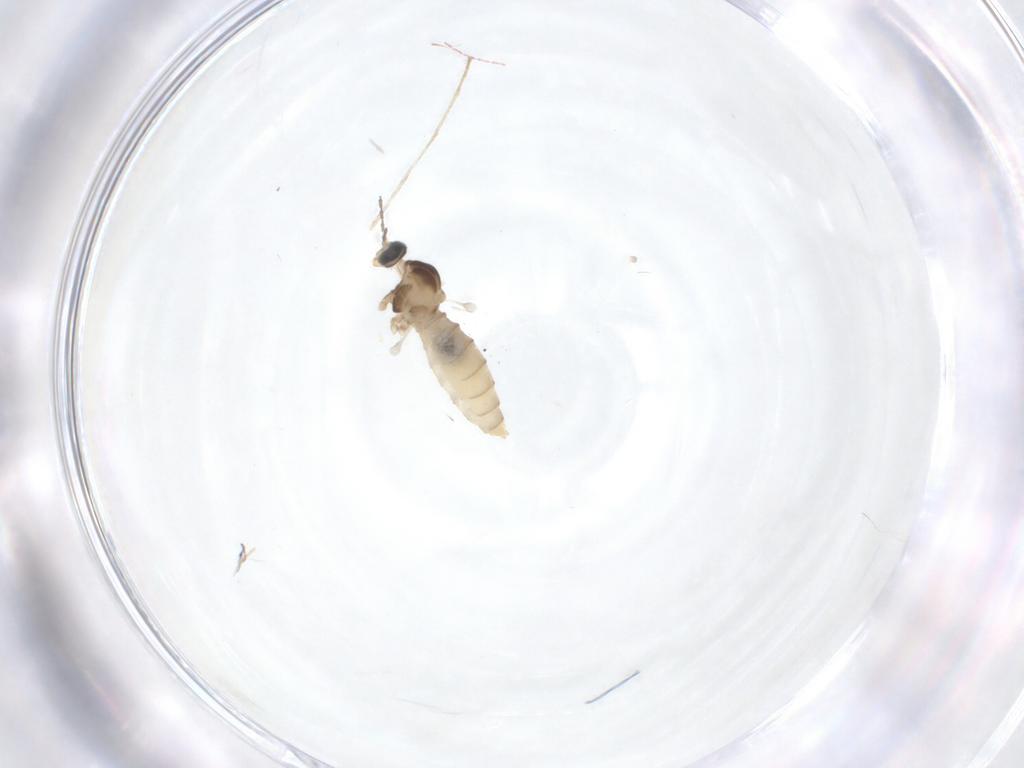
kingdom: Animalia
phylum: Arthropoda
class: Insecta
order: Diptera
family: Cecidomyiidae
